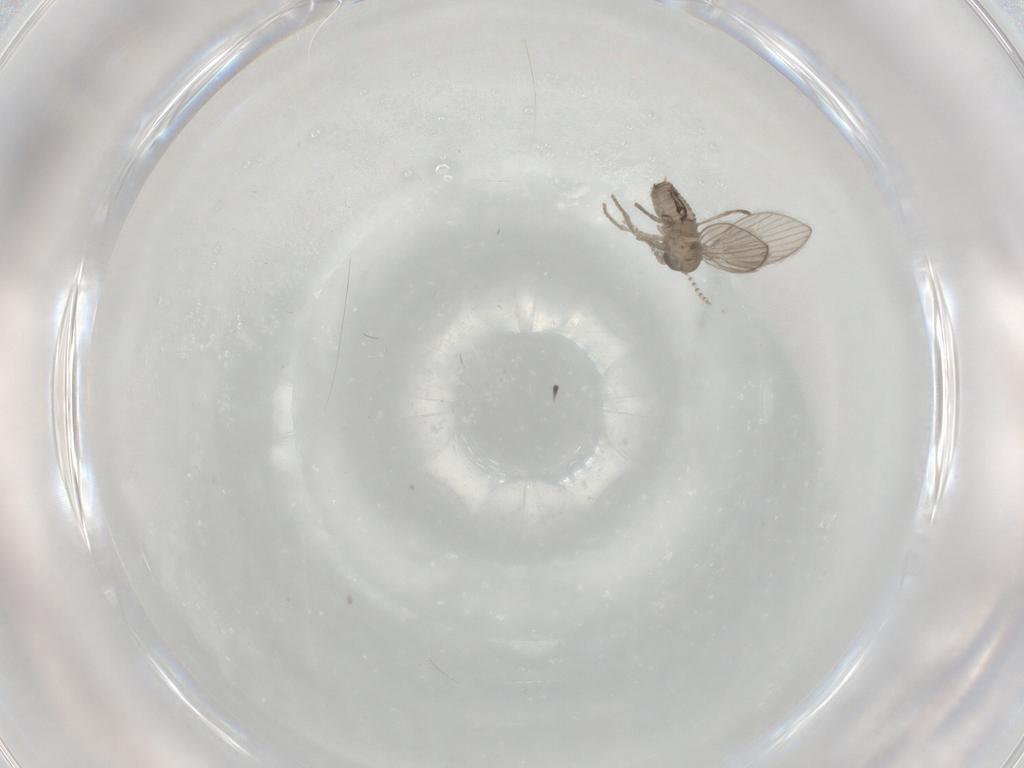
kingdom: Animalia
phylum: Arthropoda
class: Insecta
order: Diptera
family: Psychodidae
